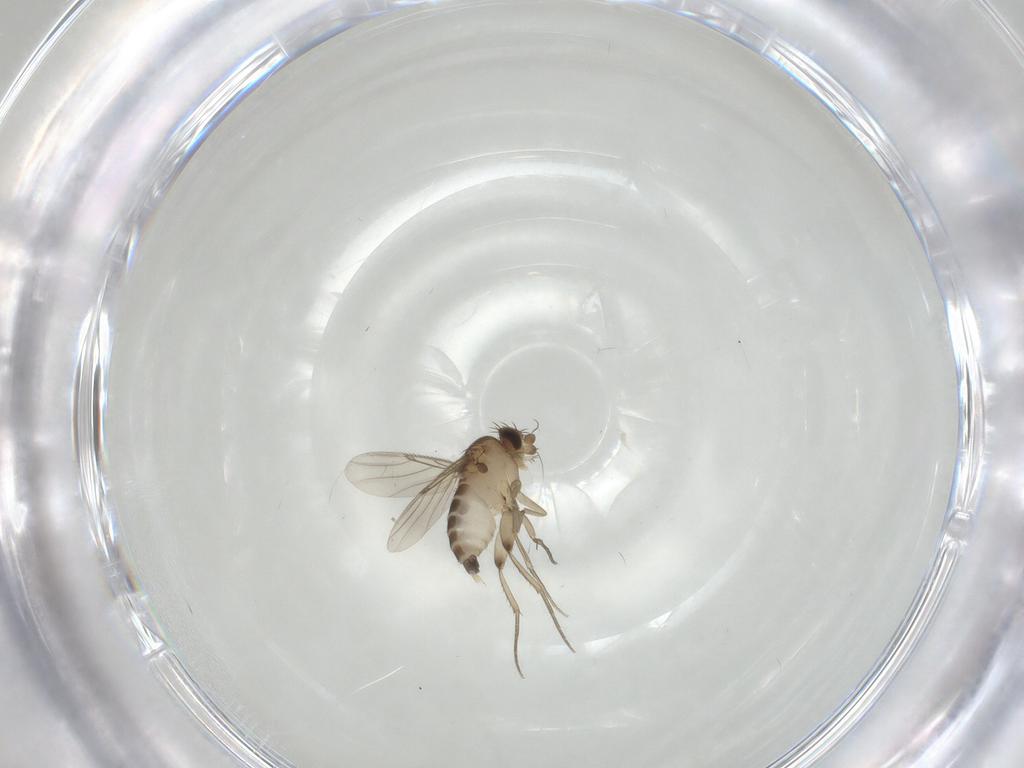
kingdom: Animalia
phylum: Arthropoda
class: Insecta
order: Diptera
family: Phoridae
